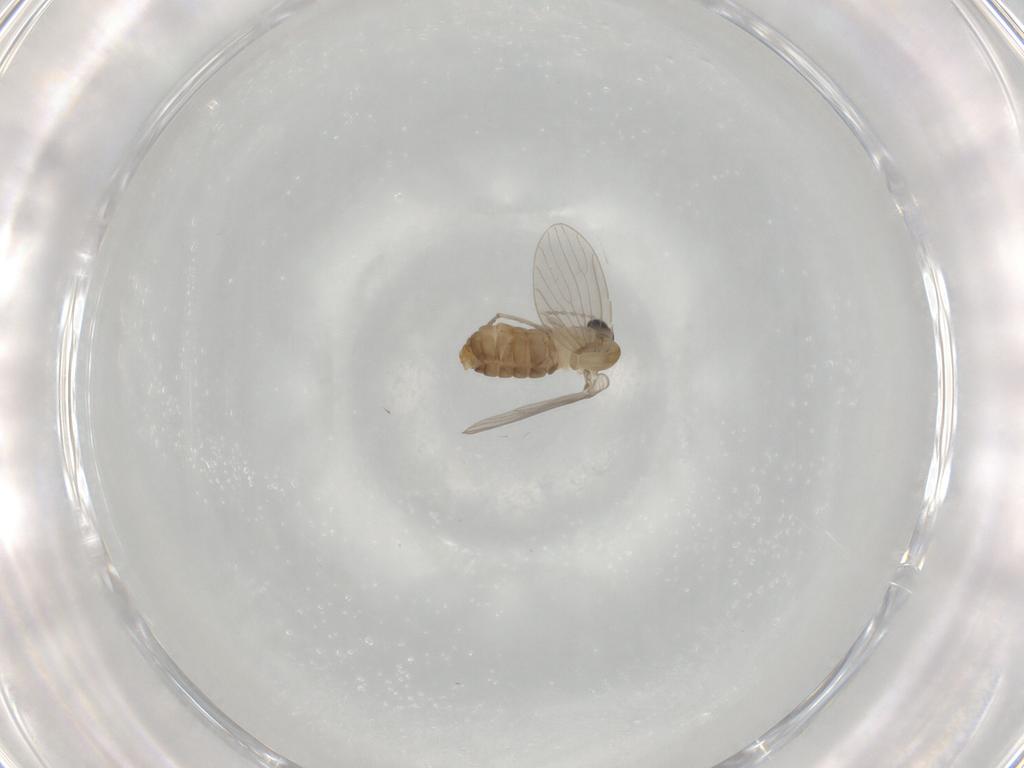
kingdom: Animalia
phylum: Arthropoda
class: Insecta
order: Diptera
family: Psychodidae
